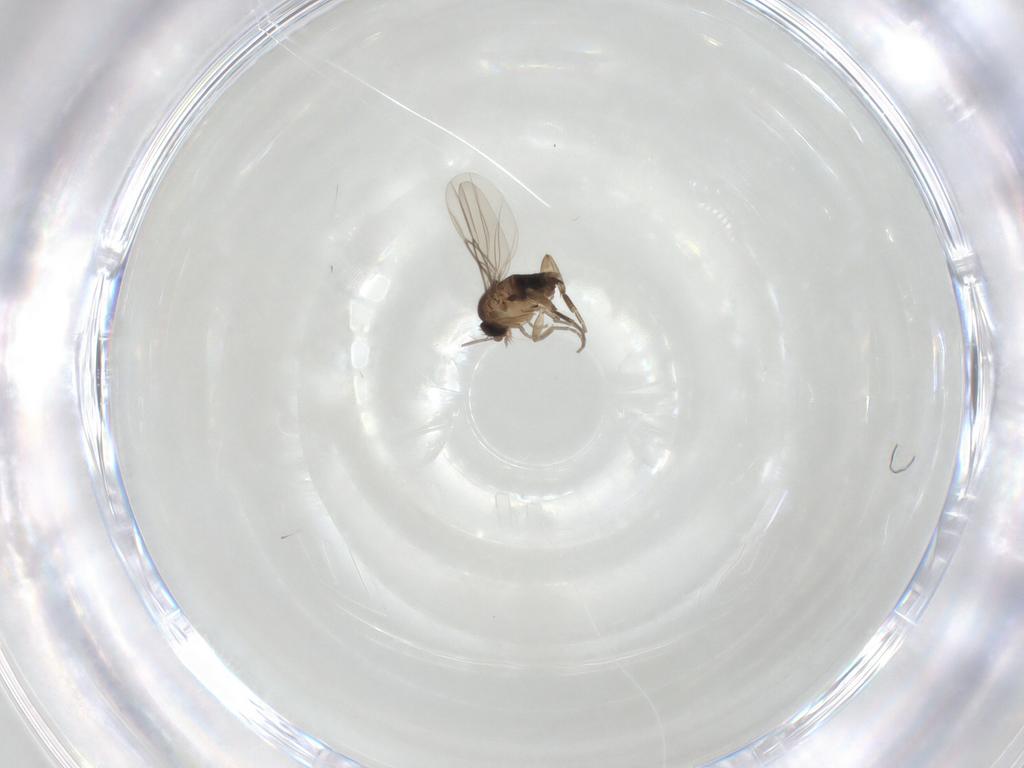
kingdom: Animalia
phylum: Arthropoda
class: Insecta
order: Diptera
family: Phoridae
